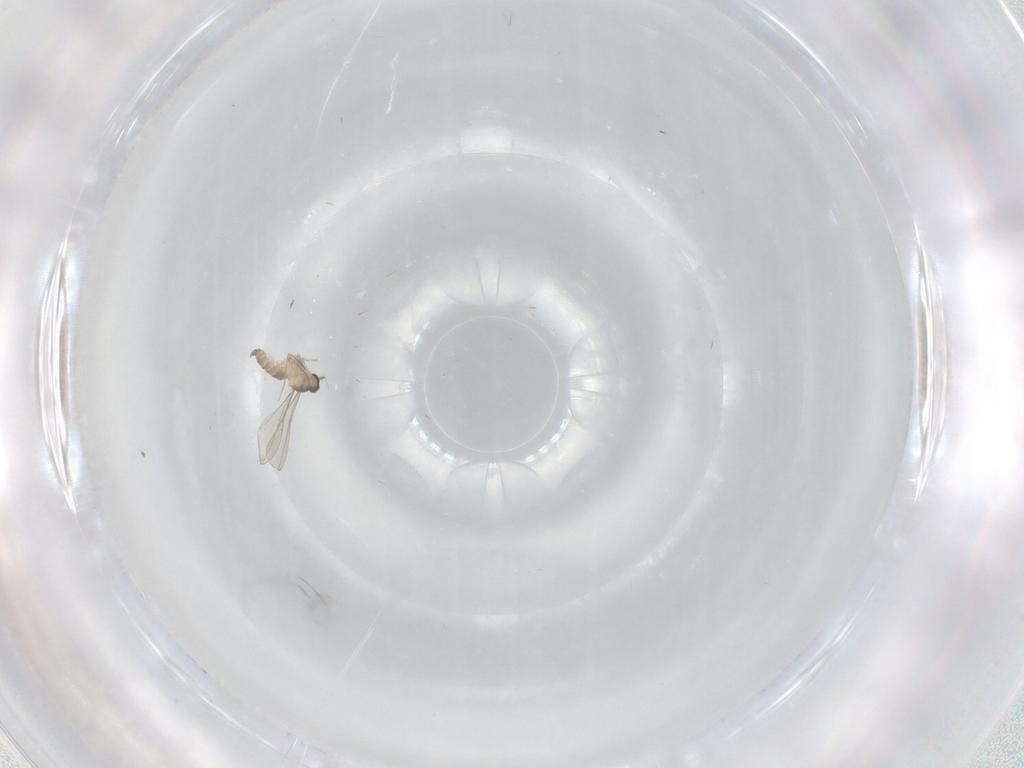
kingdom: Animalia
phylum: Arthropoda
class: Insecta
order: Diptera
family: Cecidomyiidae
